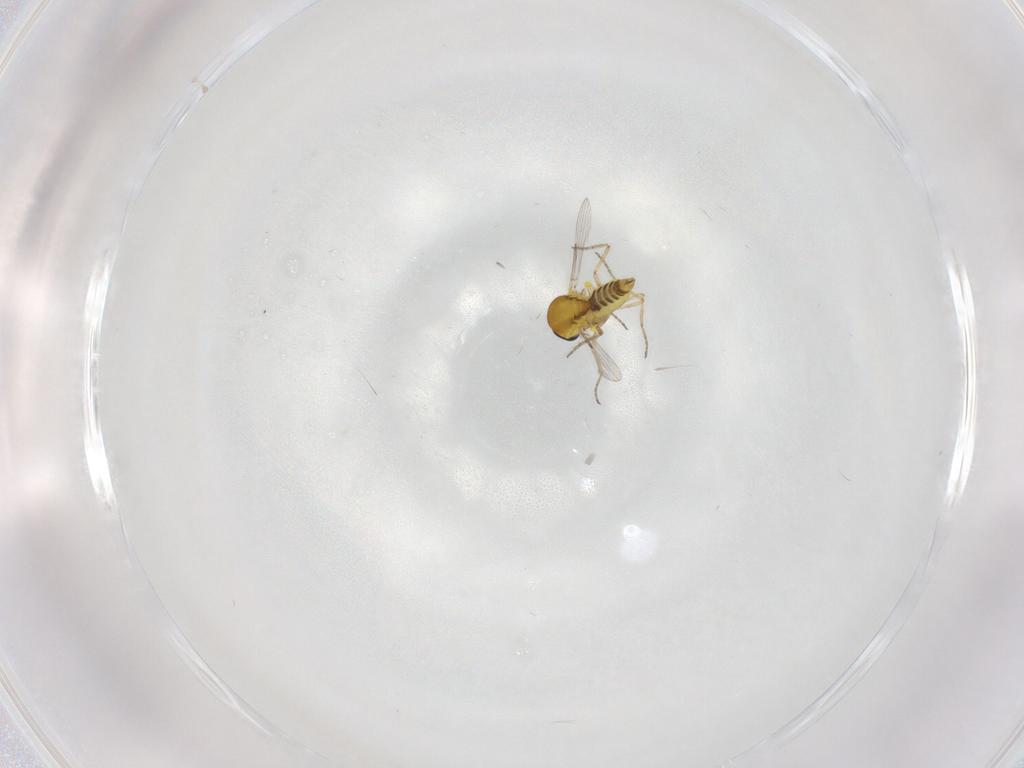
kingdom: Animalia
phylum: Arthropoda
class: Insecta
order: Diptera
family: Ceratopogonidae
